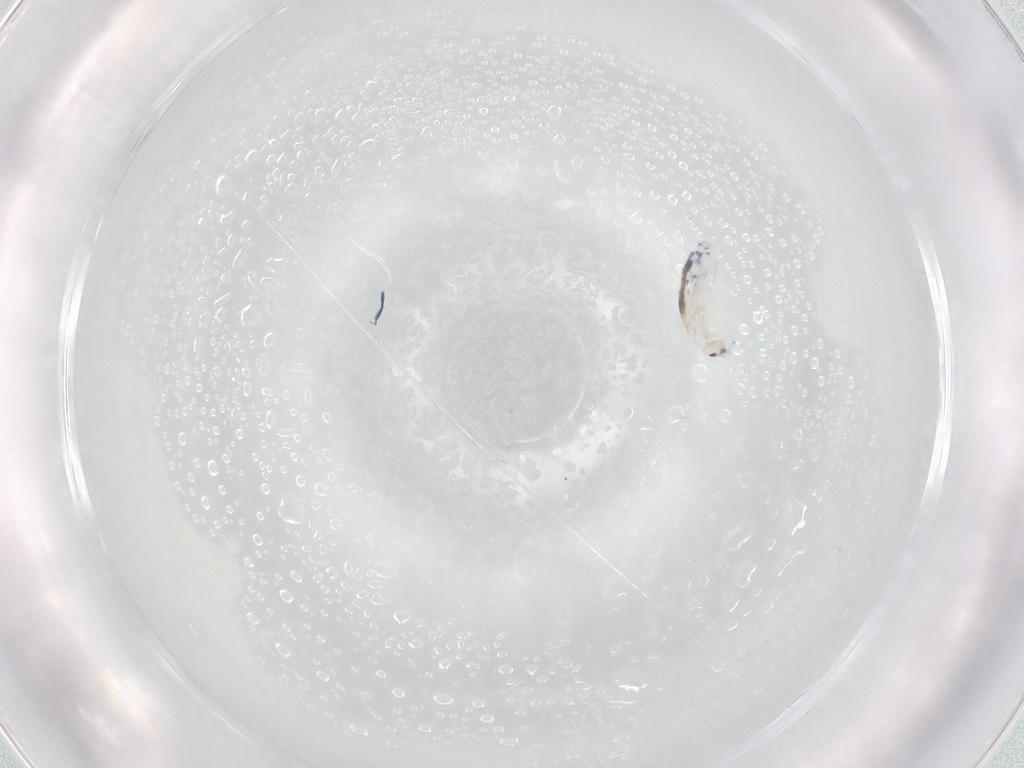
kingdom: Animalia
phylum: Arthropoda
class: Collembola
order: Entomobryomorpha
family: Entomobryidae
